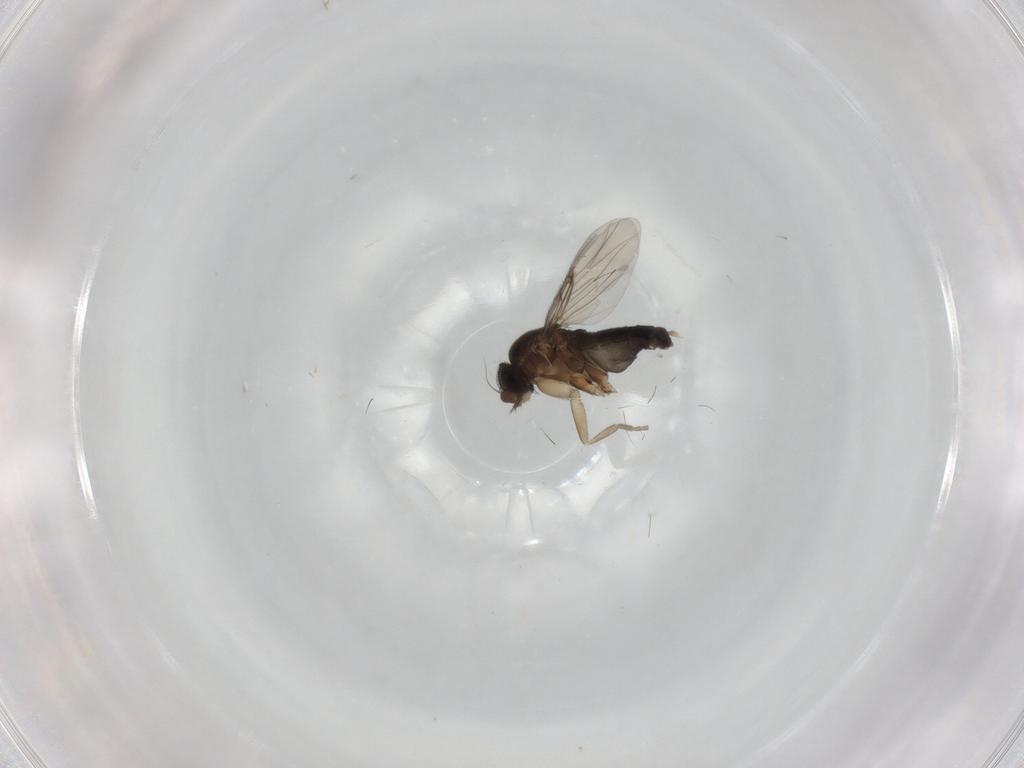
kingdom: Animalia
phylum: Arthropoda
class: Insecta
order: Diptera
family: Phoridae
